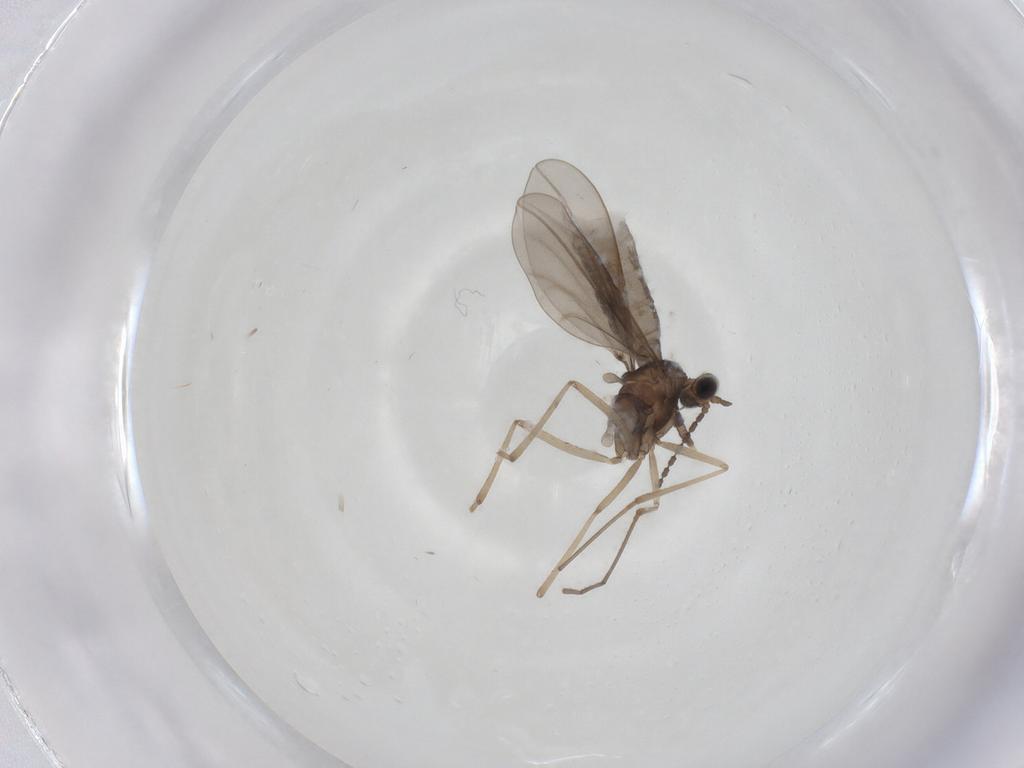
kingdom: Animalia
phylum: Arthropoda
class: Insecta
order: Diptera
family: Cecidomyiidae
